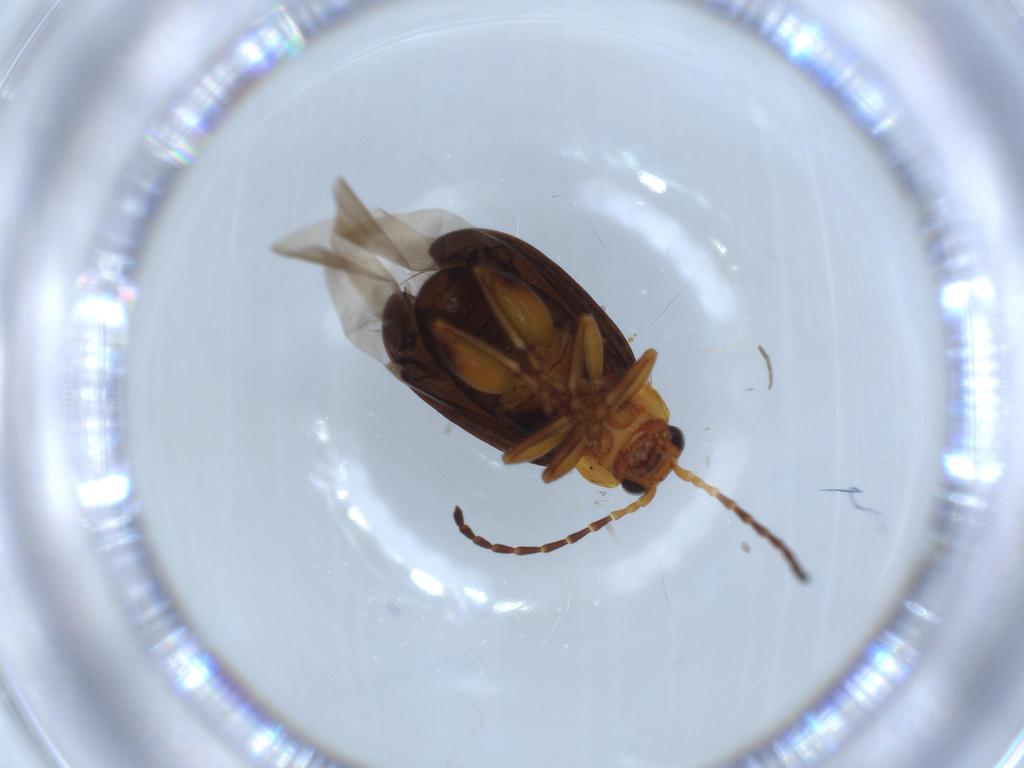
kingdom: Animalia
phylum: Arthropoda
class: Insecta
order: Coleoptera
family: Chrysomelidae
